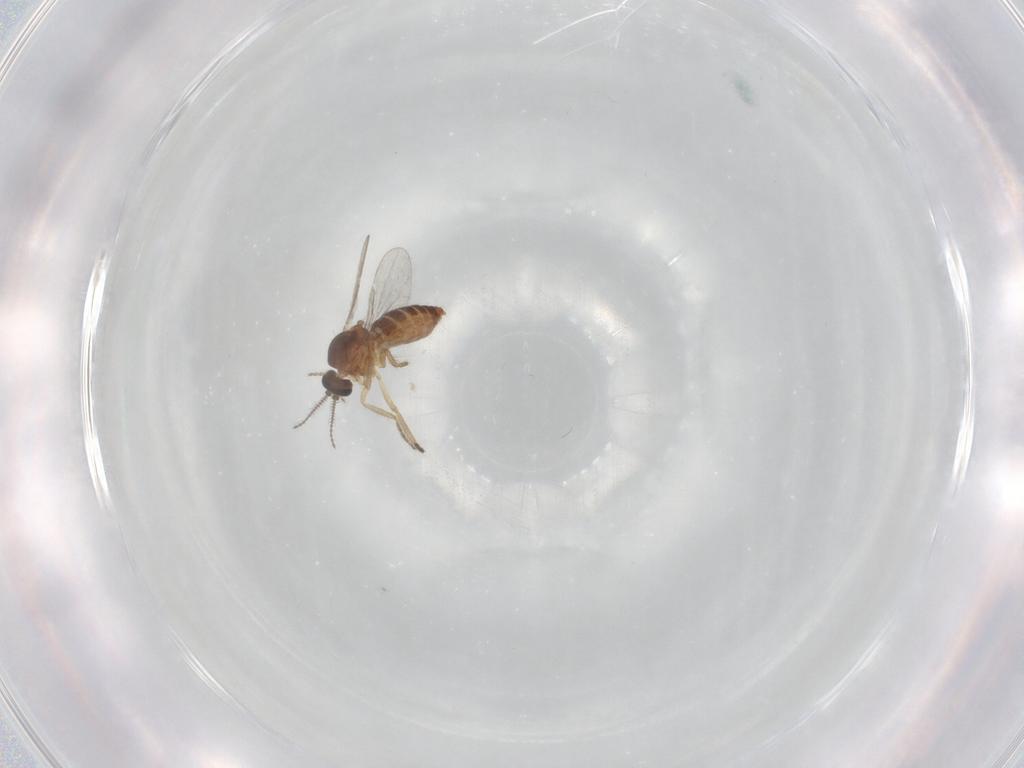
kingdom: Animalia
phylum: Arthropoda
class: Insecta
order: Diptera
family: Ceratopogonidae
